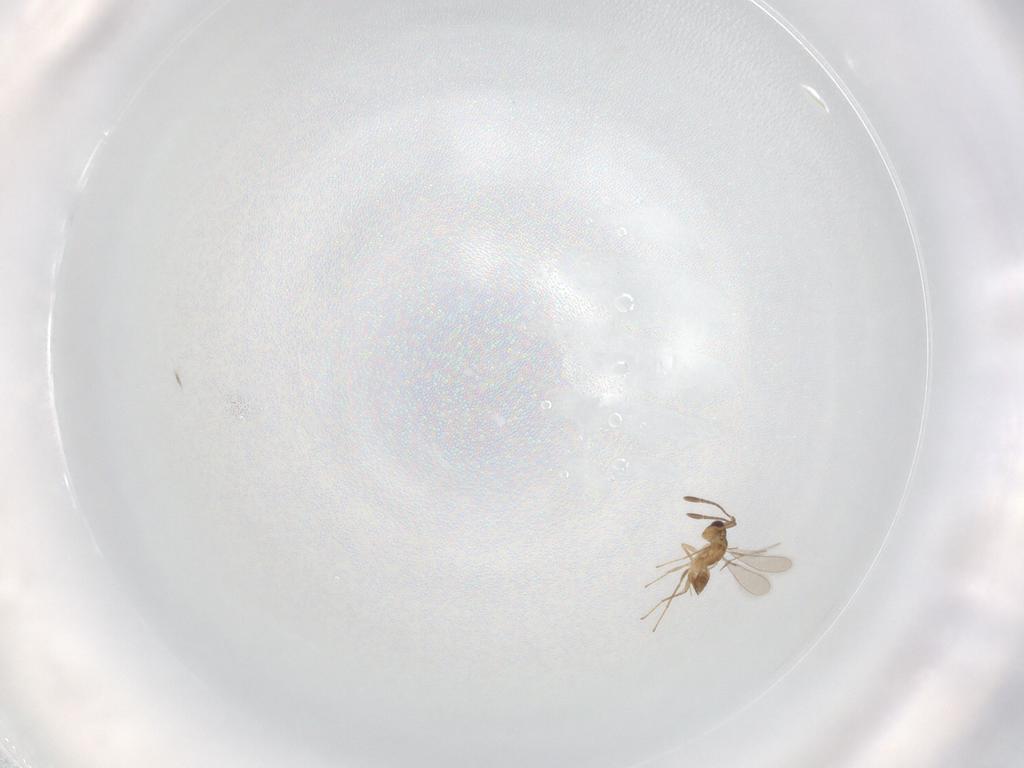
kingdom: Animalia
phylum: Arthropoda
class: Insecta
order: Hymenoptera
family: Mymaridae
